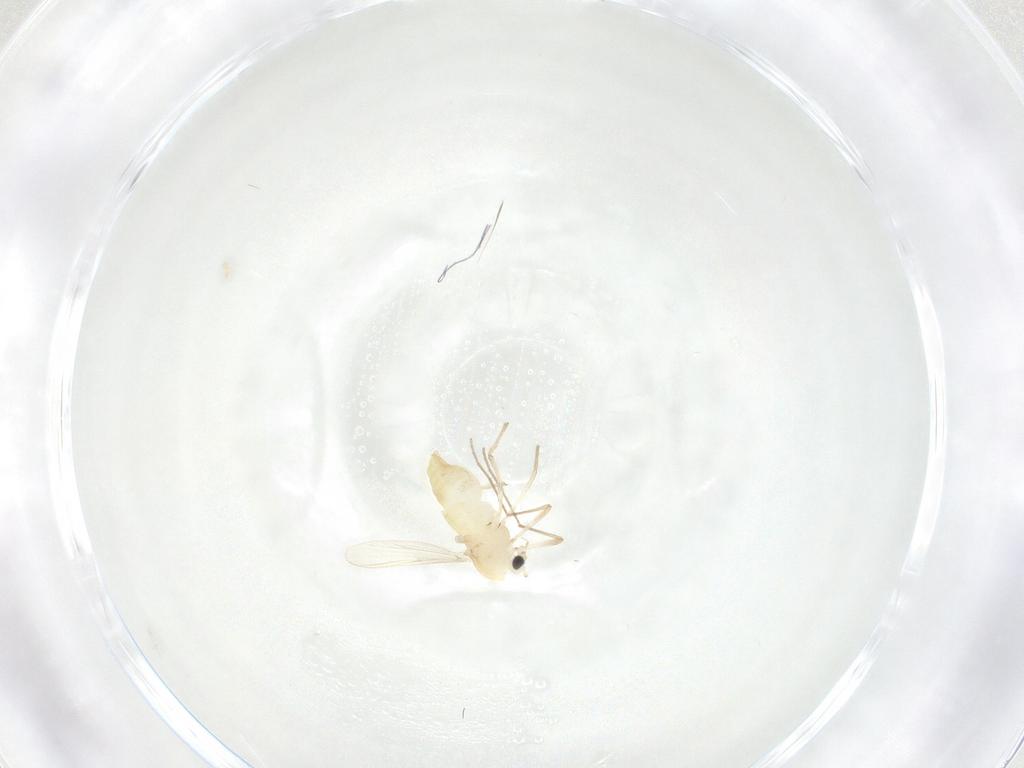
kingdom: Animalia
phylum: Arthropoda
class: Insecta
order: Diptera
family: Chironomidae
